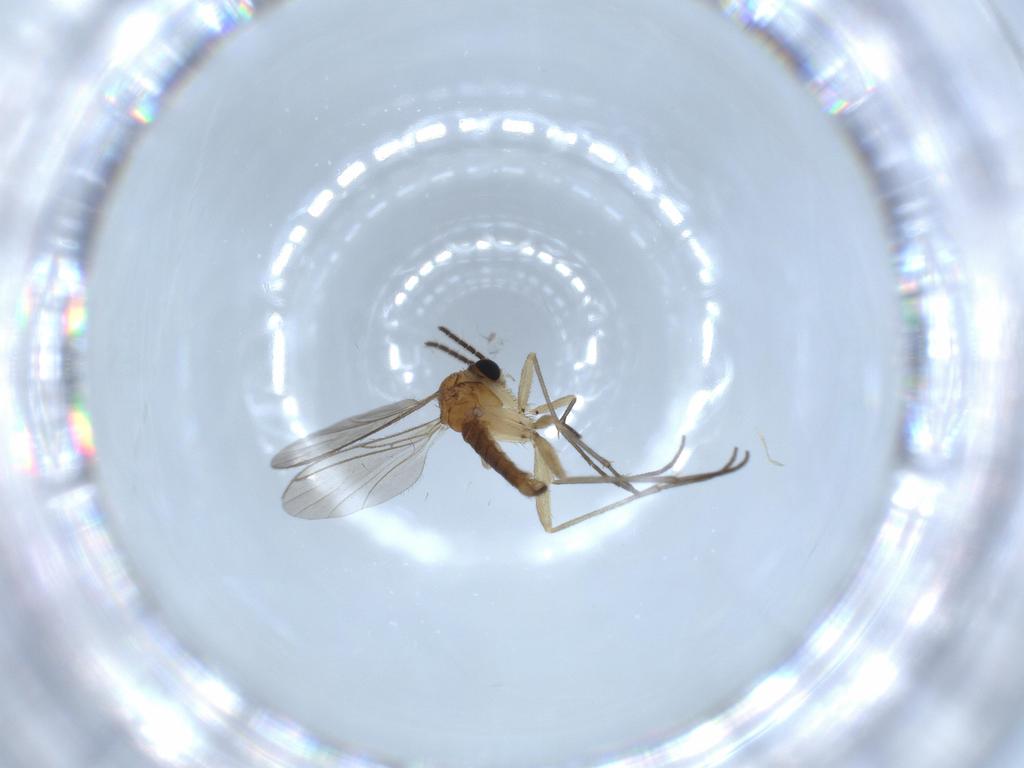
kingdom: Animalia
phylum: Arthropoda
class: Insecta
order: Diptera
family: Sciaridae
